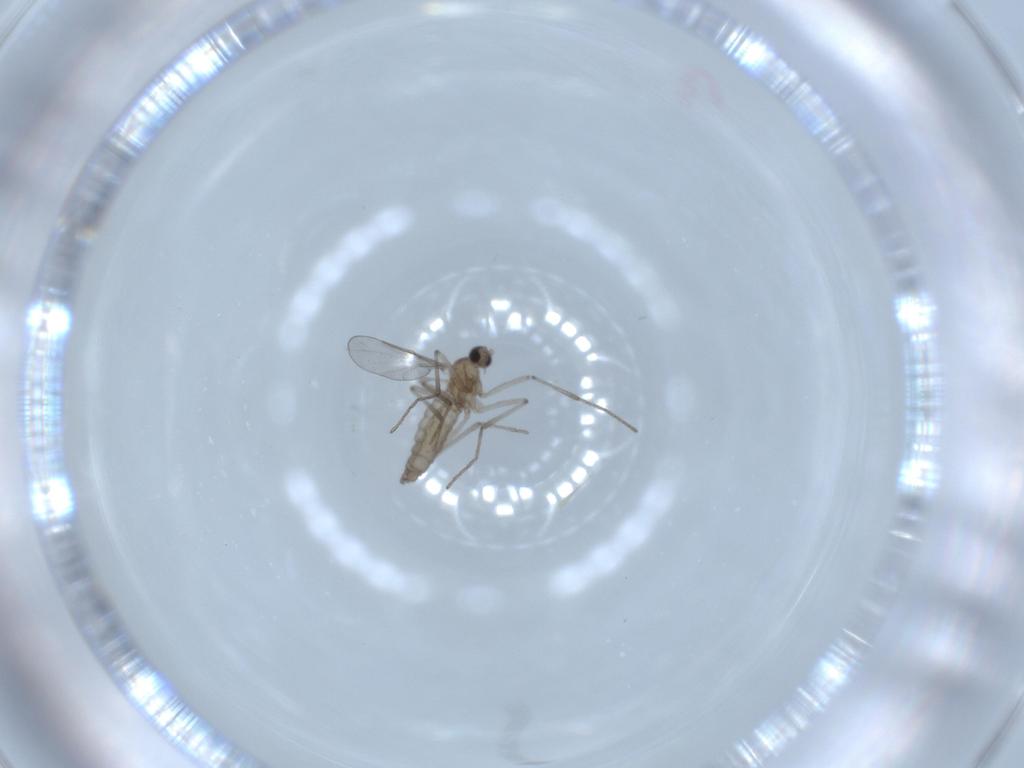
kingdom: Animalia
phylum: Arthropoda
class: Insecta
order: Diptera
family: Cecidomyiidae
